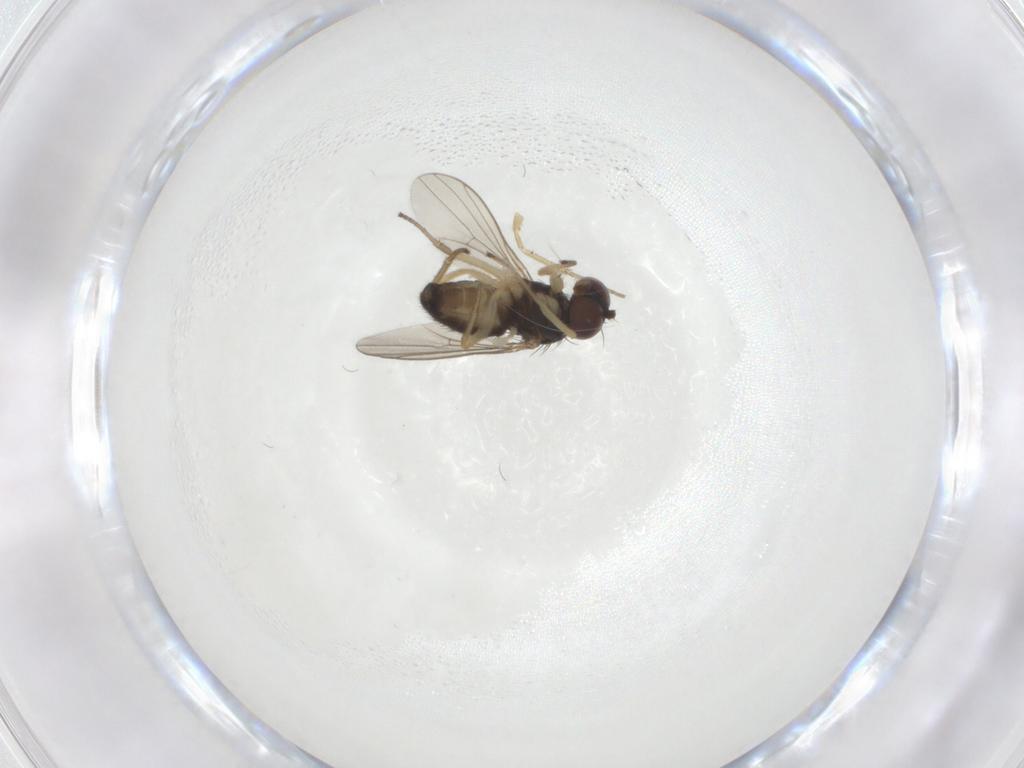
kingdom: Animalia
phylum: Arthropoda
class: Insecta
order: Diptera
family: Dolichopodidae
